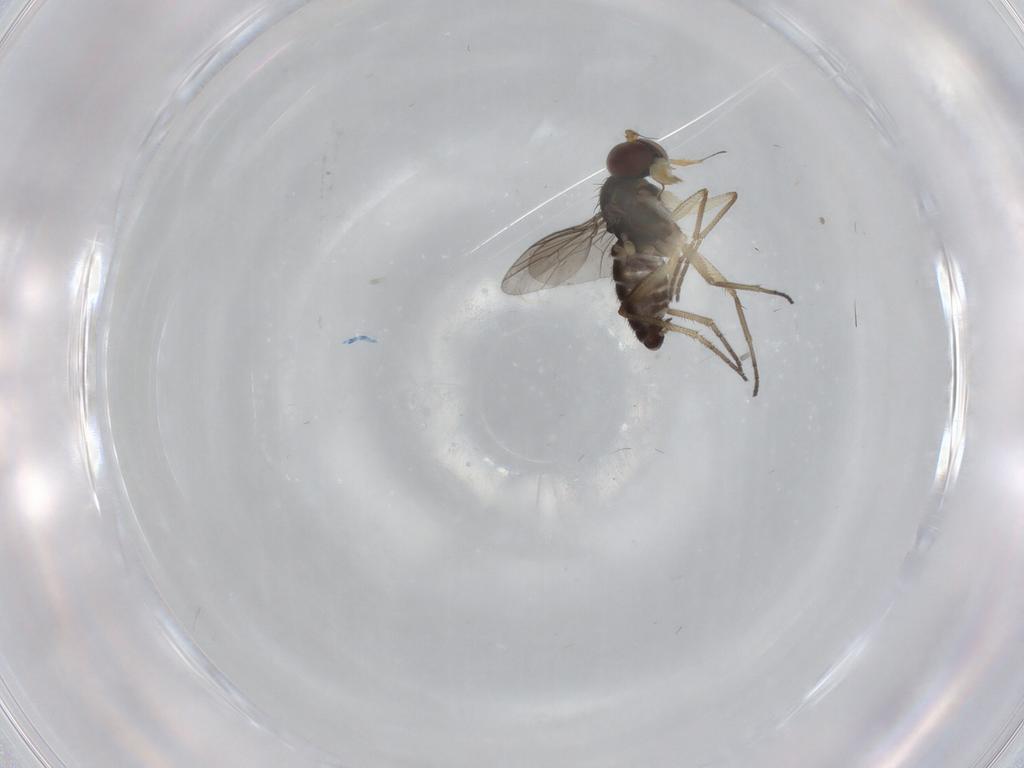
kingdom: Animalia
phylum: Arthropoda
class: Insecta
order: Diptera
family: Dolichopodidae
